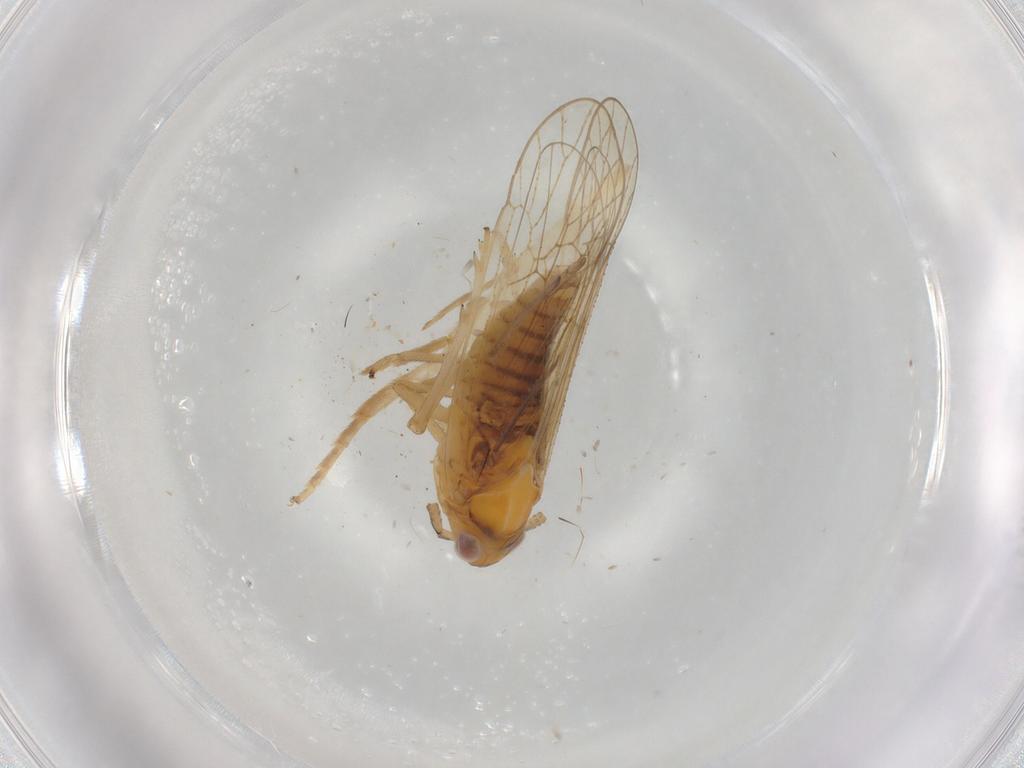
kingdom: Animalia
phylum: Arthropoda
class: Insecta
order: Hemiptera
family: Delphacidae
